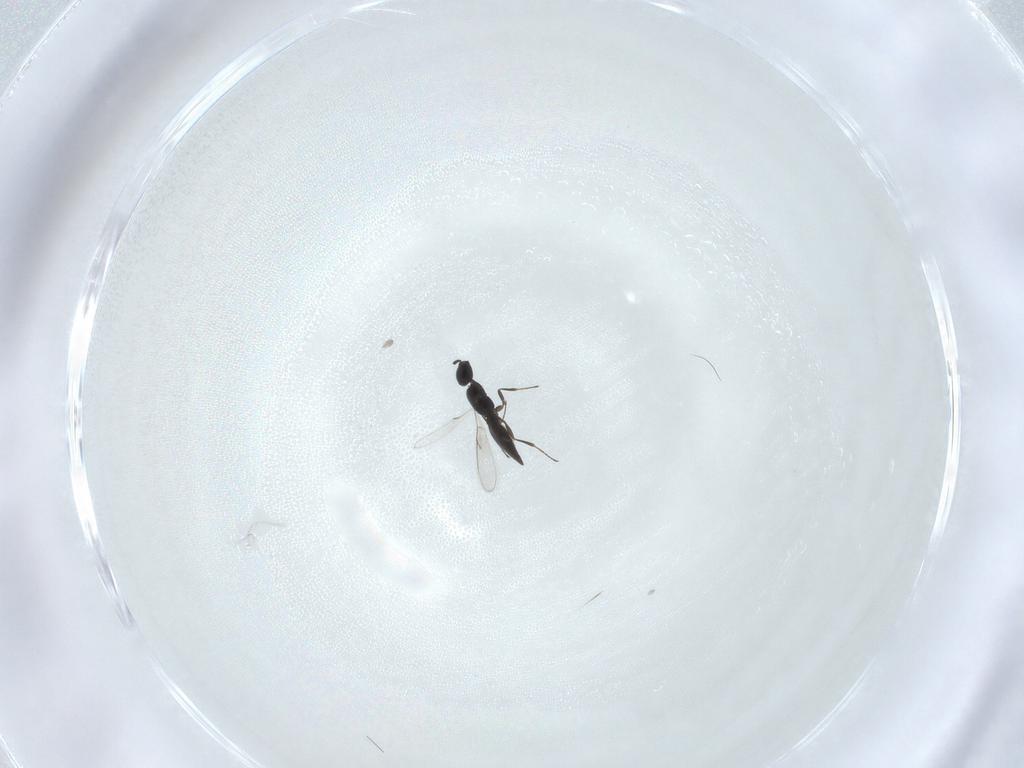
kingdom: Animalia
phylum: Arthropoda
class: Insecta
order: Hymenoptera
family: Scelionidae
